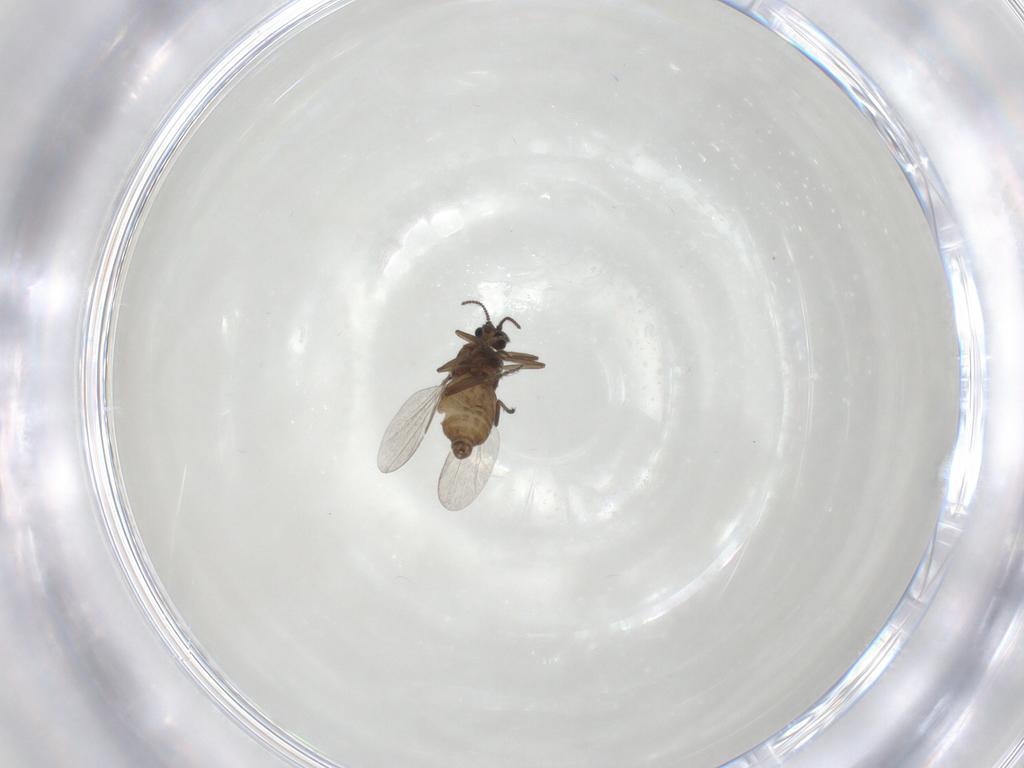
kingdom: Animalia
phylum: Arthropoda
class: Insecta
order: Diptera
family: Ceratopogonidae
